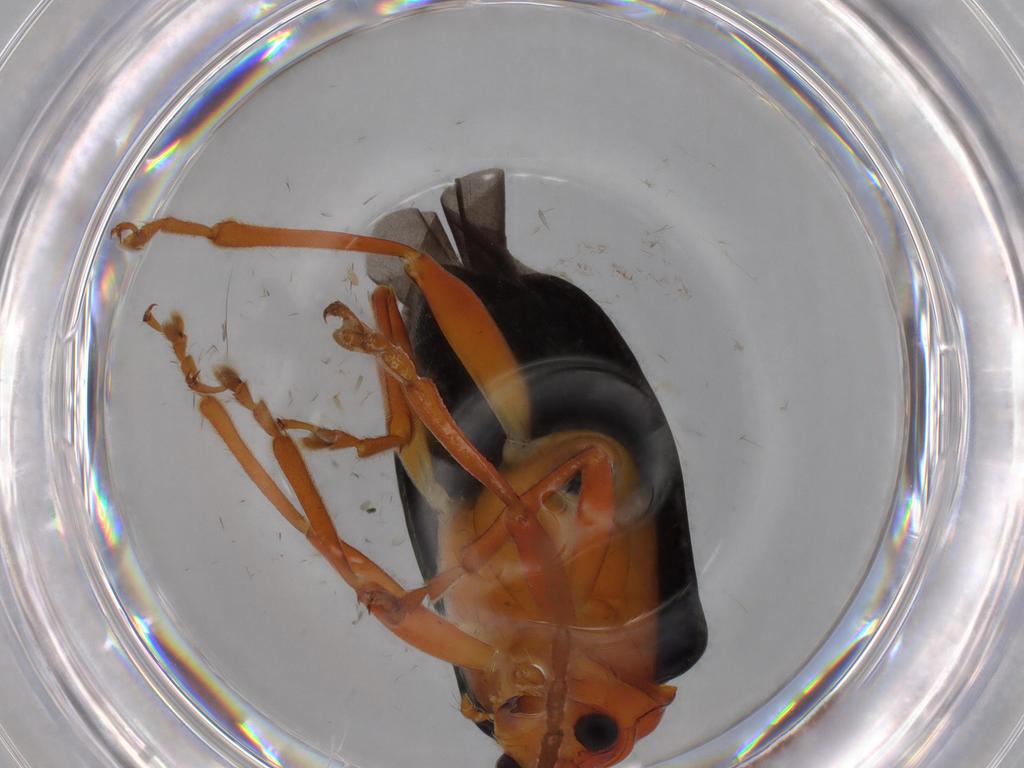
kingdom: Animalia
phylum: Arthropoda
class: Insecta
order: Coleoptera
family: Chrysomelidae
